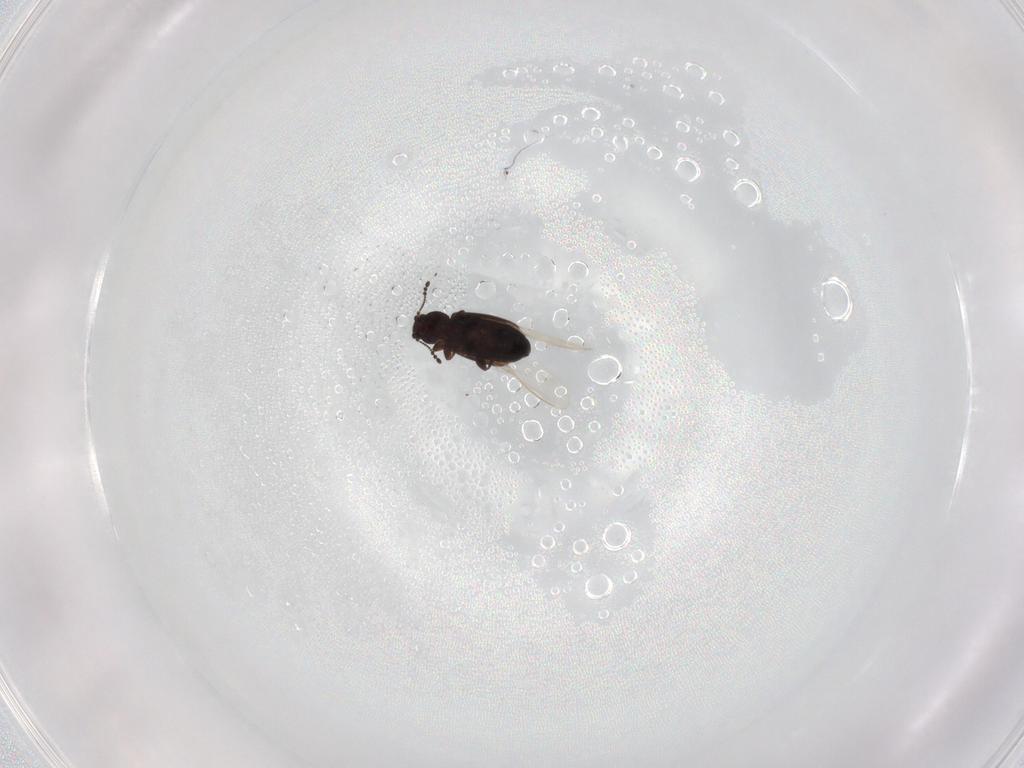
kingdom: Animalia
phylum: Arthropoda
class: Insecta
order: Coleoptera
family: Latridiidae
